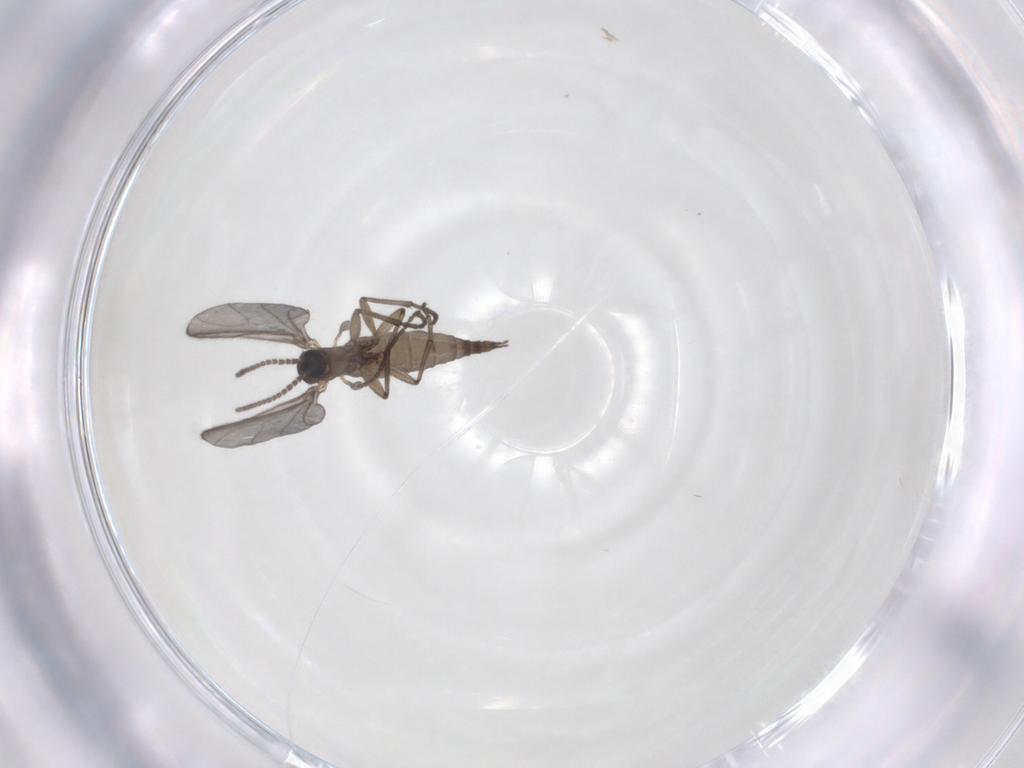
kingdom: Animalia
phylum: Arthropoda
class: Insecta
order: Diptera
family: Sciaridae
